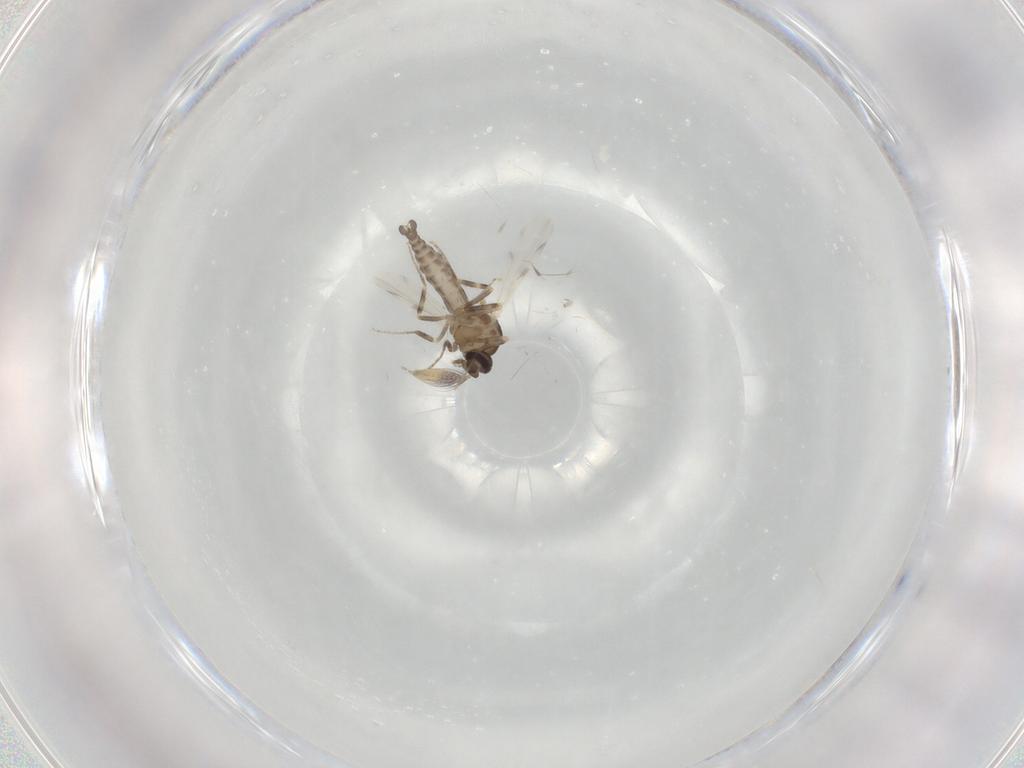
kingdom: Animalia
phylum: Arthropoda
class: Insecta
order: Diptera
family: Ceratopogonidae
